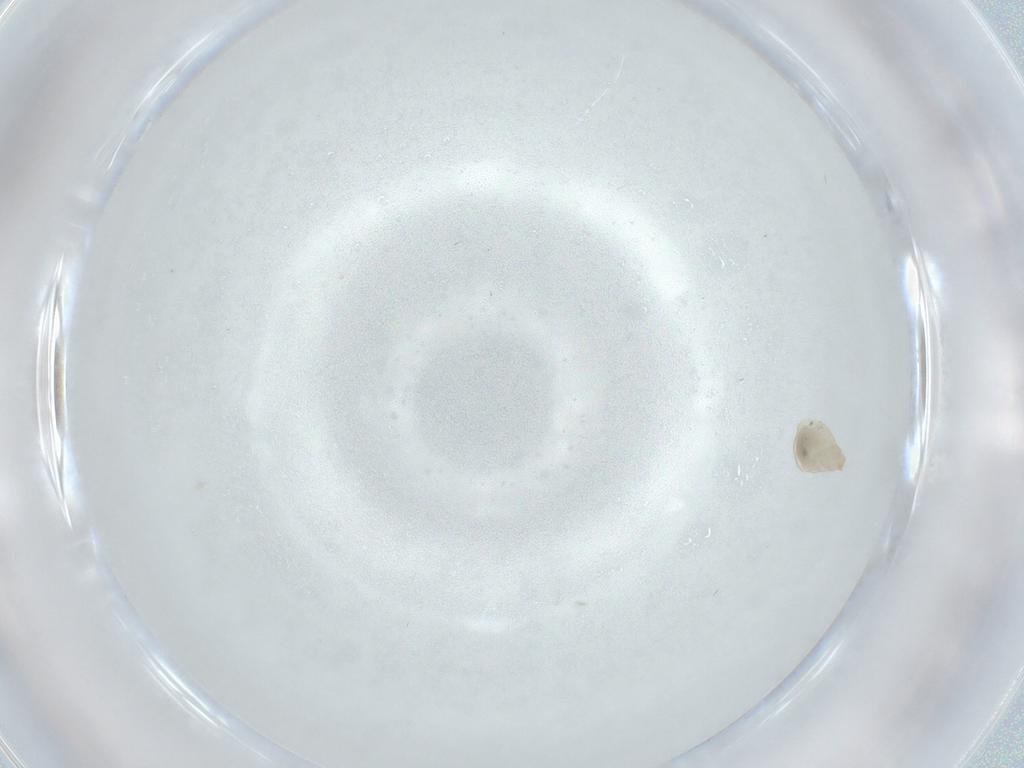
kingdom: Animalia
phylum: Arthropoda
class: Insecta
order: Diptera
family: Cecidomyiidae
